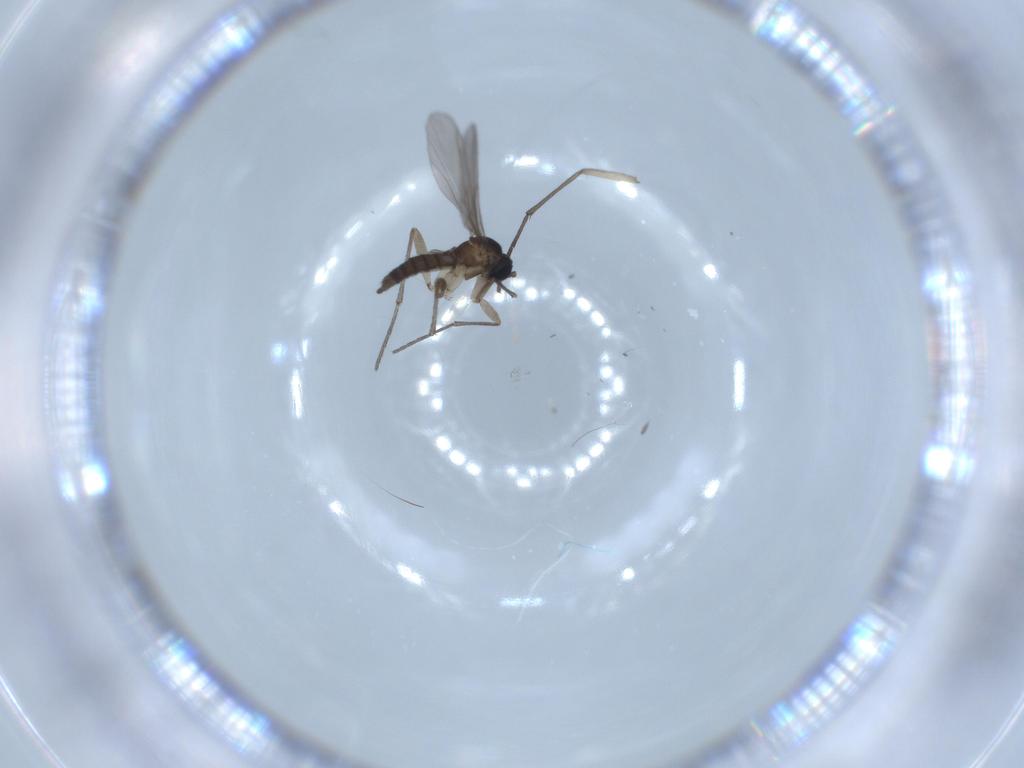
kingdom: Animalia
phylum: Arthropoda
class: Insecta
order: Diptera
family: Sciaridae
